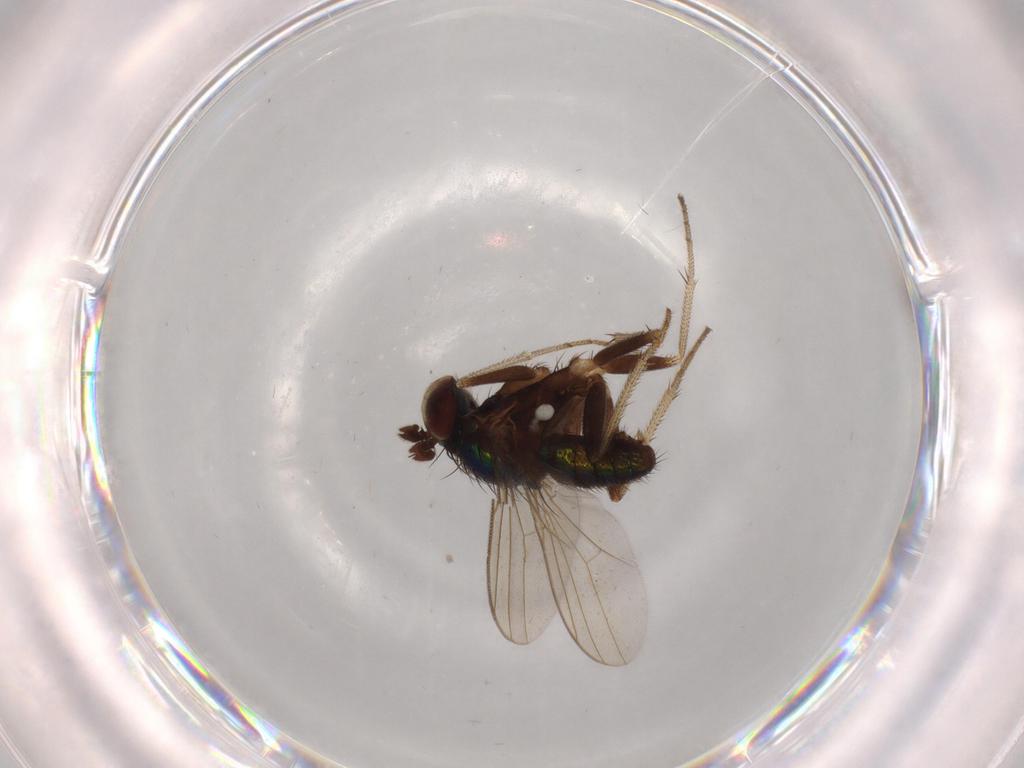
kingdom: Animalia
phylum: Arthropoda
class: Insecta
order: Diptera
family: Dolichopodidae
